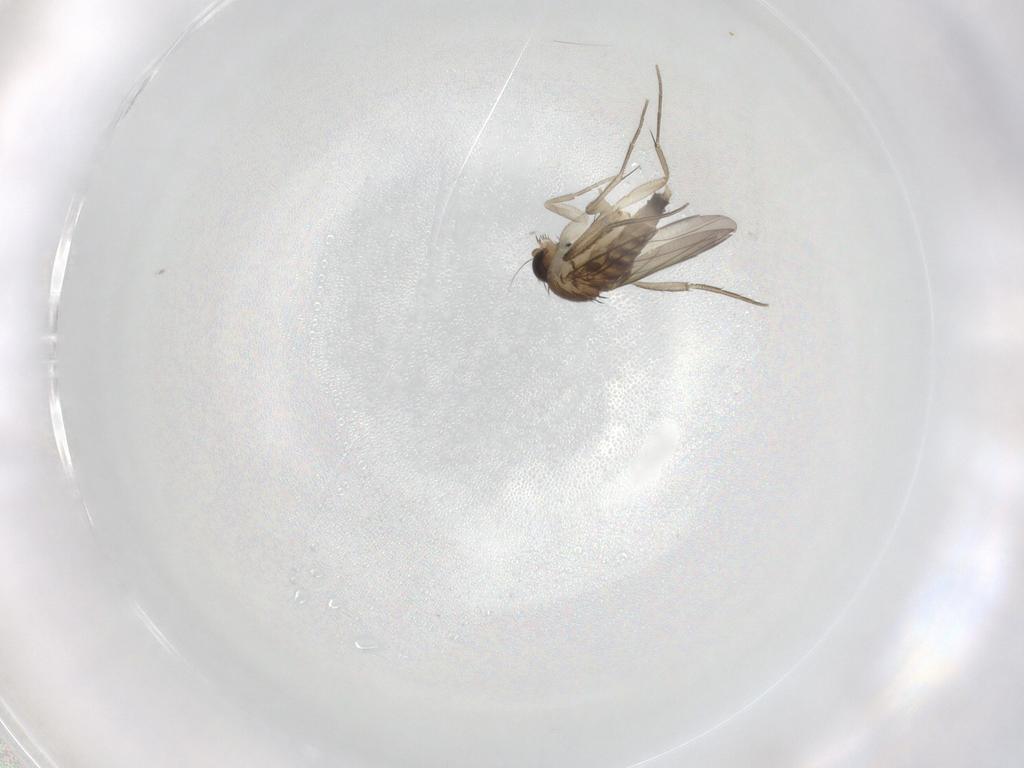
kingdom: Animalia
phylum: Arthropoda
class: Insecta
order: Diptera
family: Phoridae
